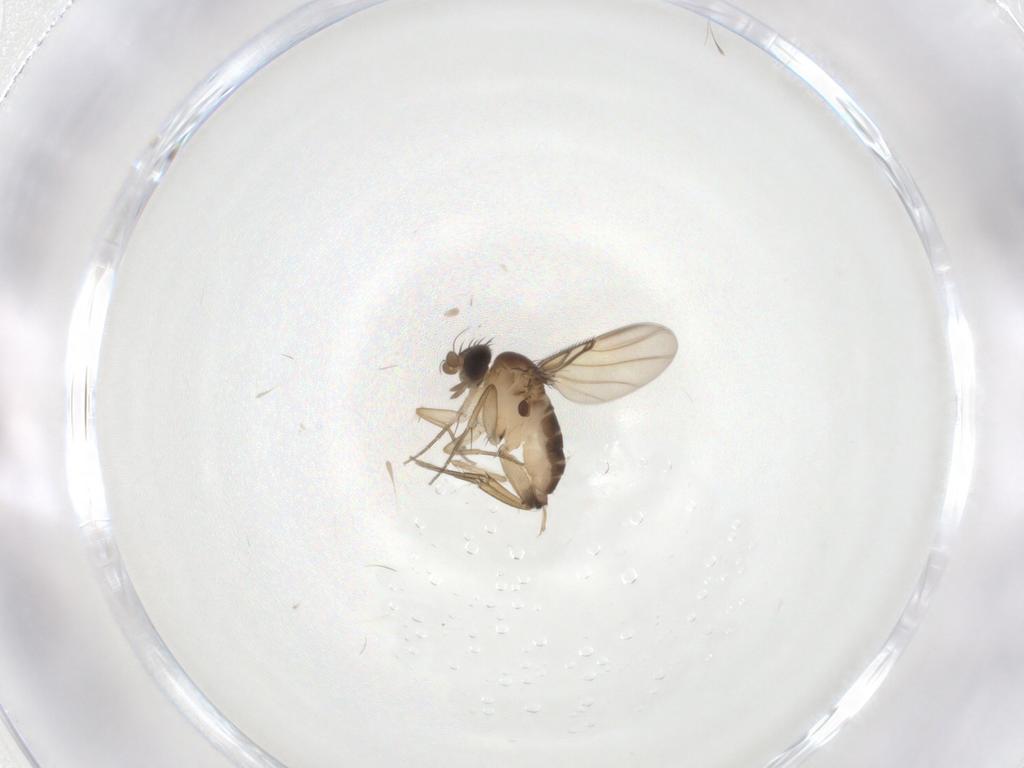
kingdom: Animalia
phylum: Arthropoda
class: Insecta
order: Diptera
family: Phoridae
